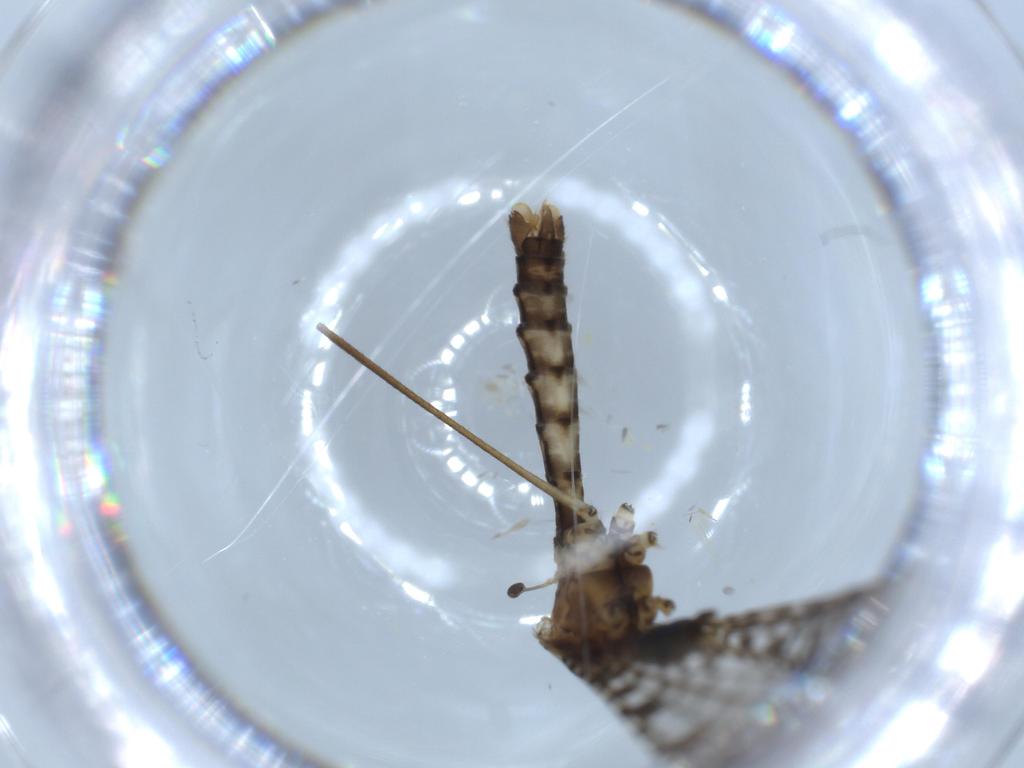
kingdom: Animalia
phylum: Arthropoda
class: Insecta
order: Diptera
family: Limoniidae
